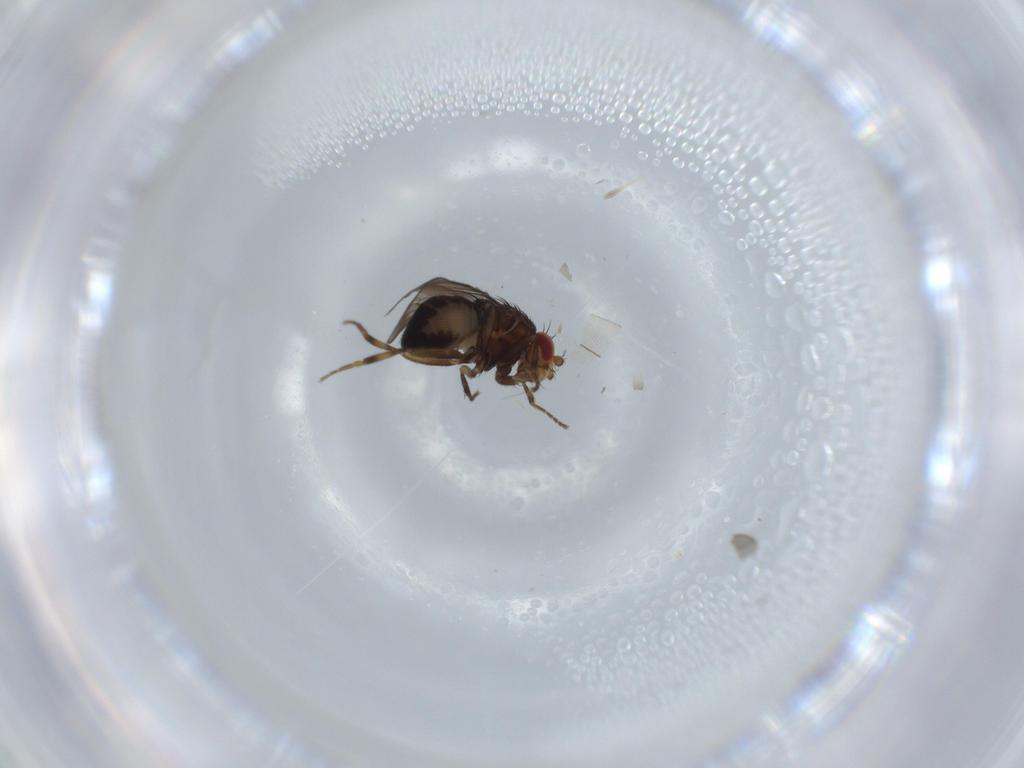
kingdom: Animalia
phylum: Arthropoda
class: Insecta
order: Diptera
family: Sphaeroceridae
